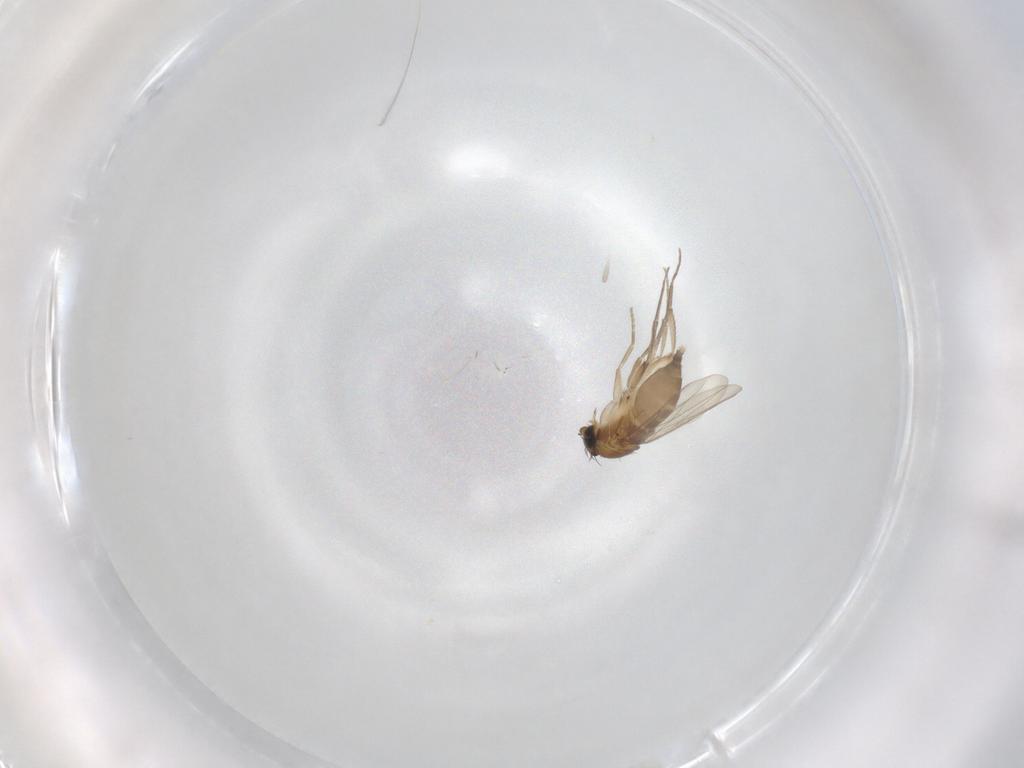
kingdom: Animalia
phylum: Arthropoda
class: Insecta
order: Diptera
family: Phoridae
